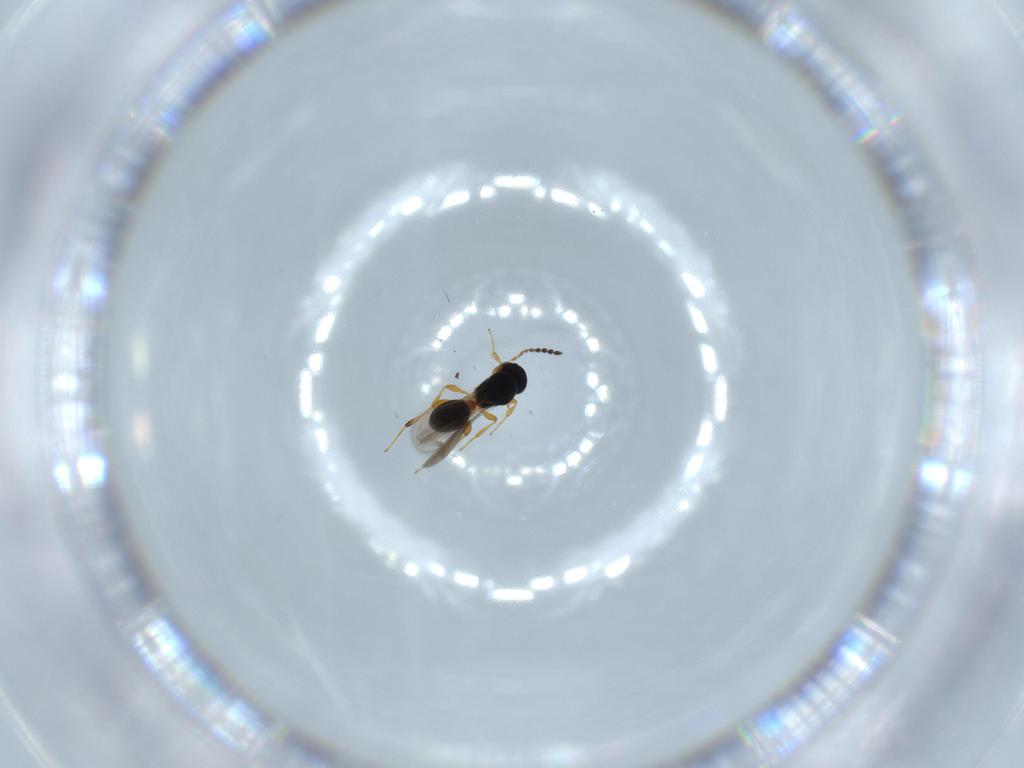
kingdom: Animalia
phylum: Arthropoda
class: Insecta
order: Hymenoptera
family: Platygastridae
